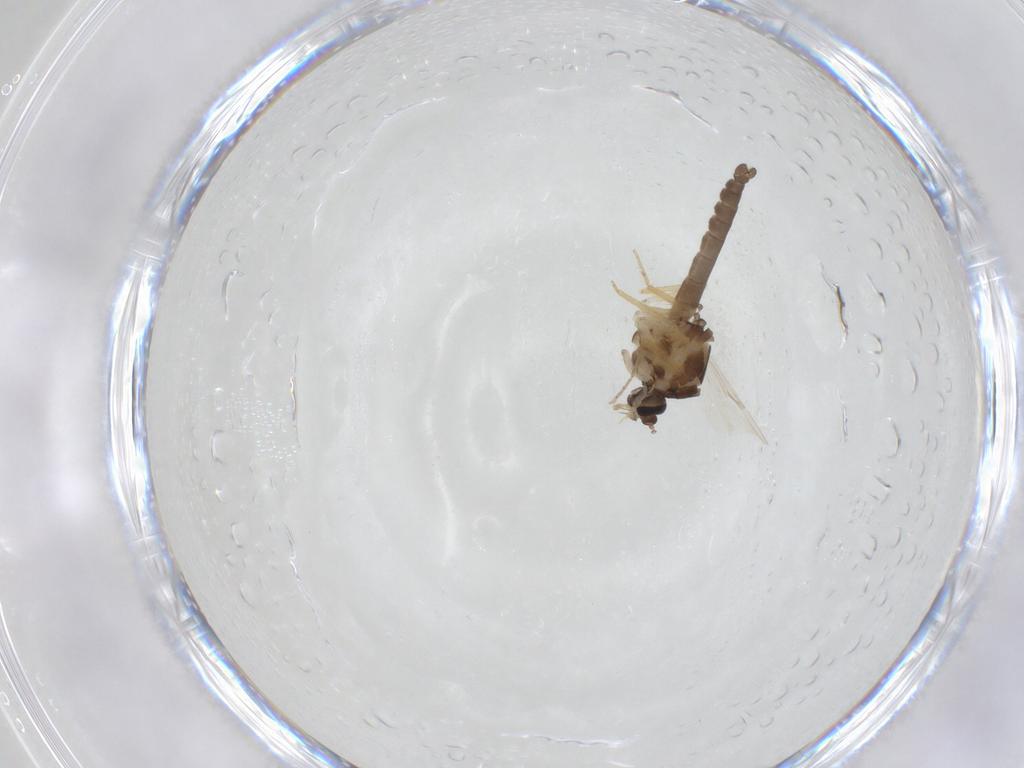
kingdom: Animalia
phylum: Arthropoda
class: Insecta
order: Diptera
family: Ceratopogonidae
